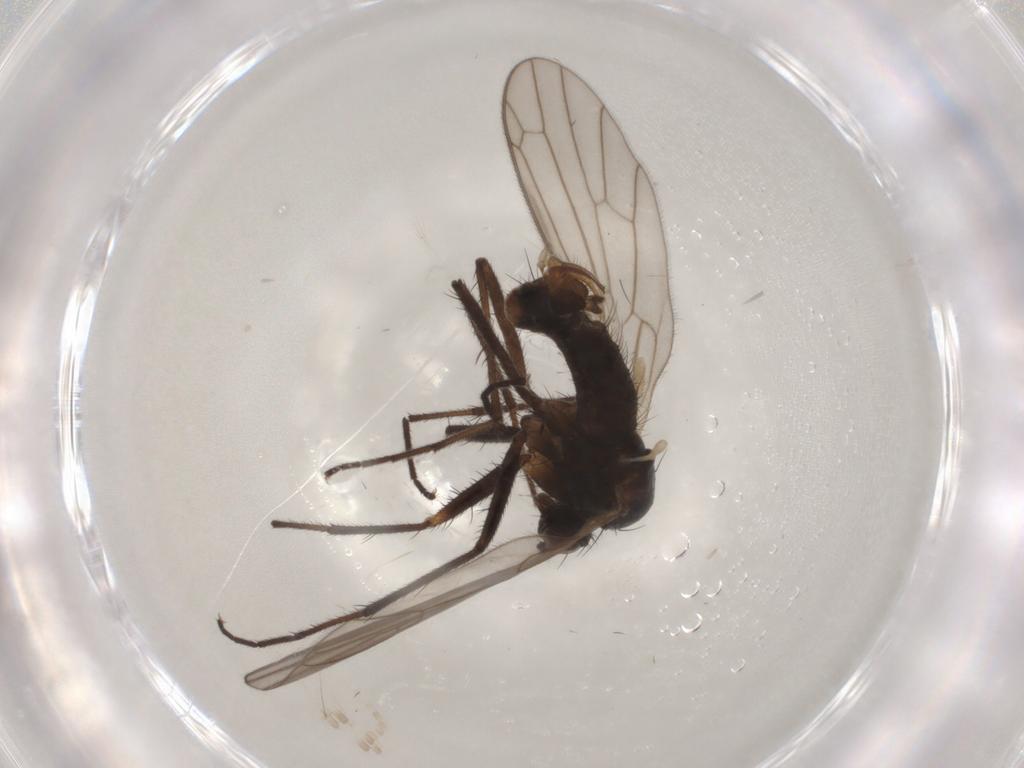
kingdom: Animalia
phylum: Arthropoda
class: Insecta
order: Diptera
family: Empididae
